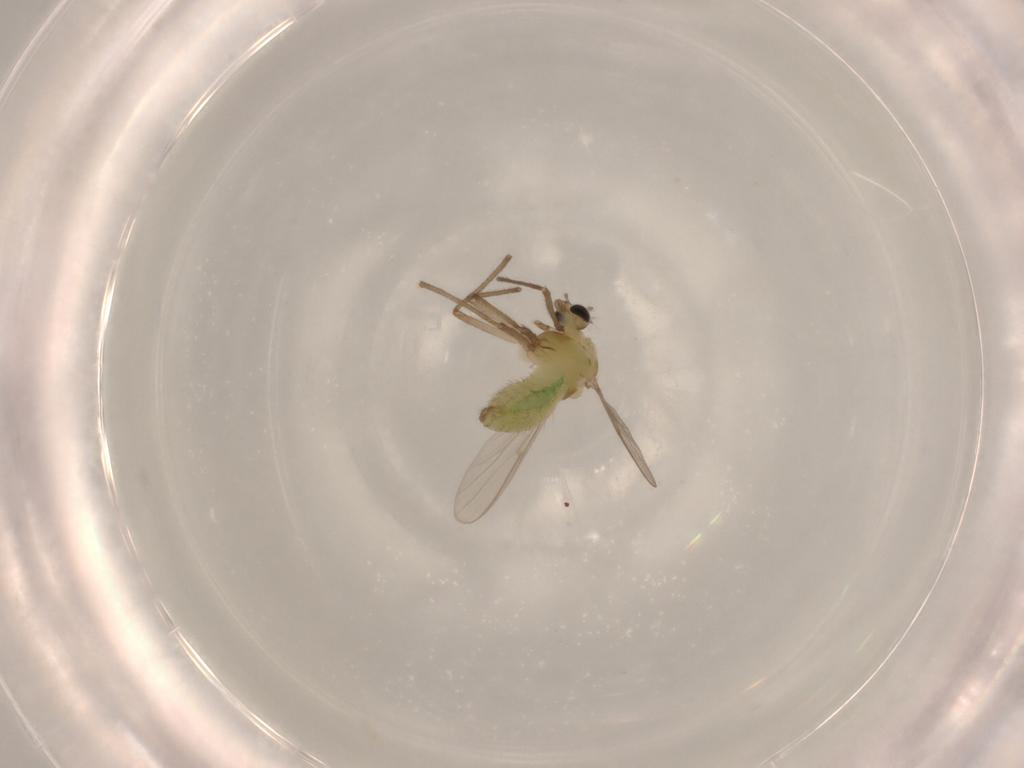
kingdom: Animalia
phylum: Arthropoda
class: Insecta
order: Diptera
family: Chironomidae
